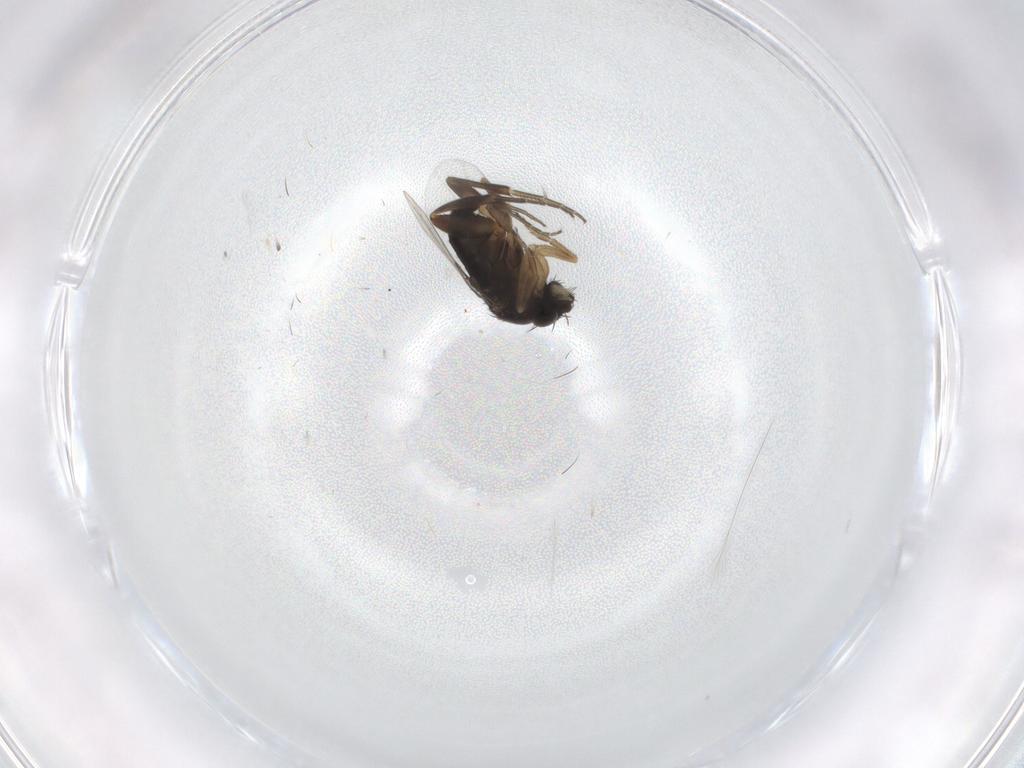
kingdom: Animalia
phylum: Arthropoda
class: Insecta
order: Diptera
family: Phoridae
